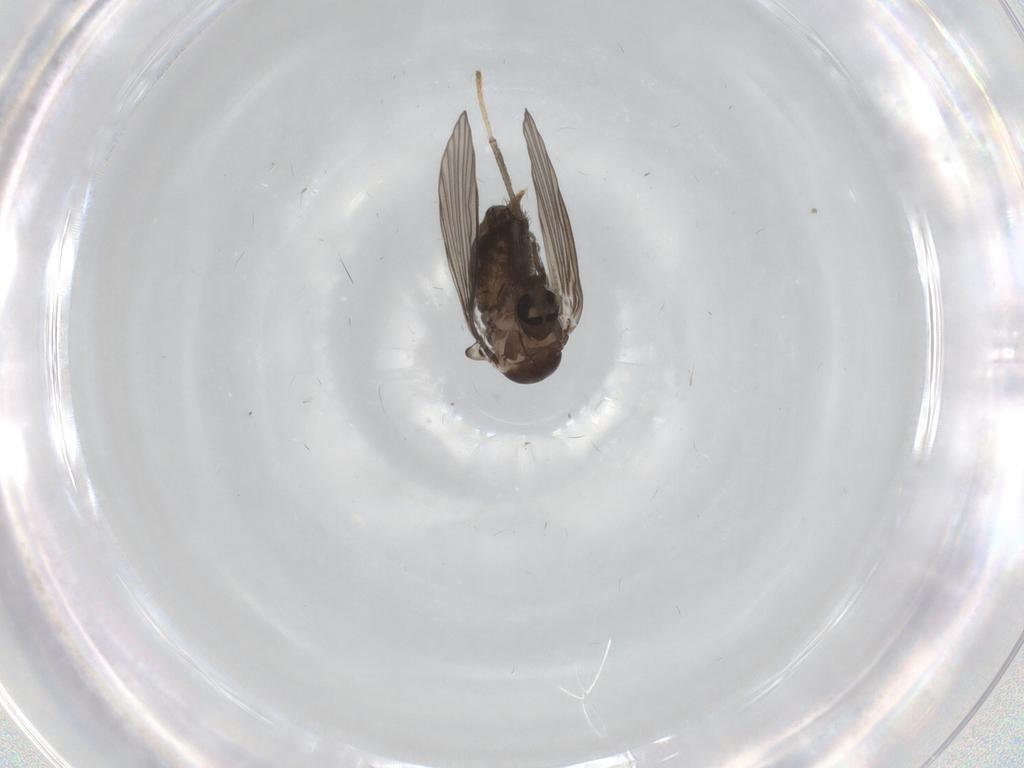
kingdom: Animalia
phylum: Arthropoda
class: Insecta
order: Diptera
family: Psychodidae
